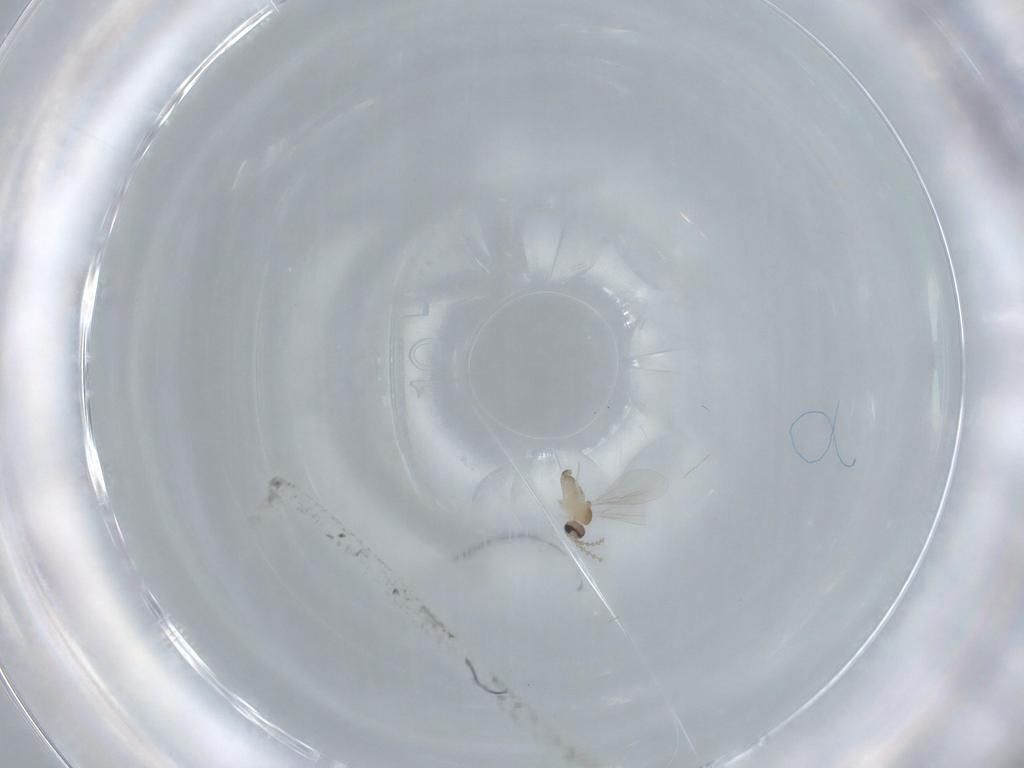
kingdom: Animalia
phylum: Arthropoda
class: Insecta
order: Diptera
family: Cecidomyiidae
